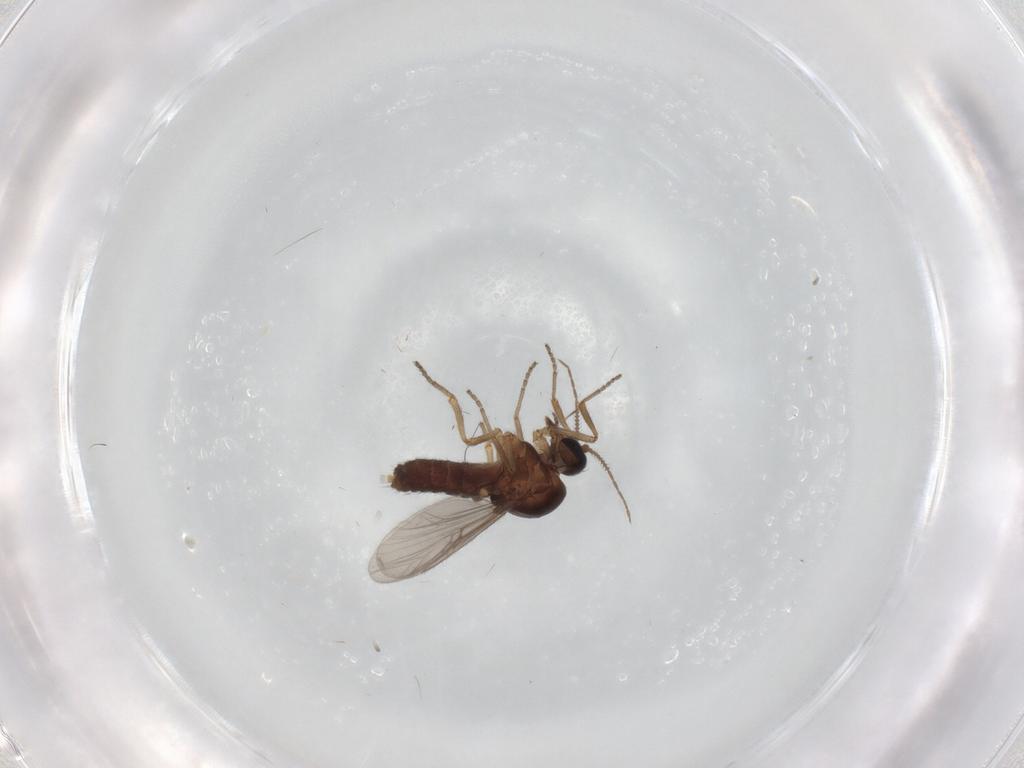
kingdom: Animalia
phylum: Arthropoda
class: Insecta
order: Diptera
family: Ceratopogonidae
